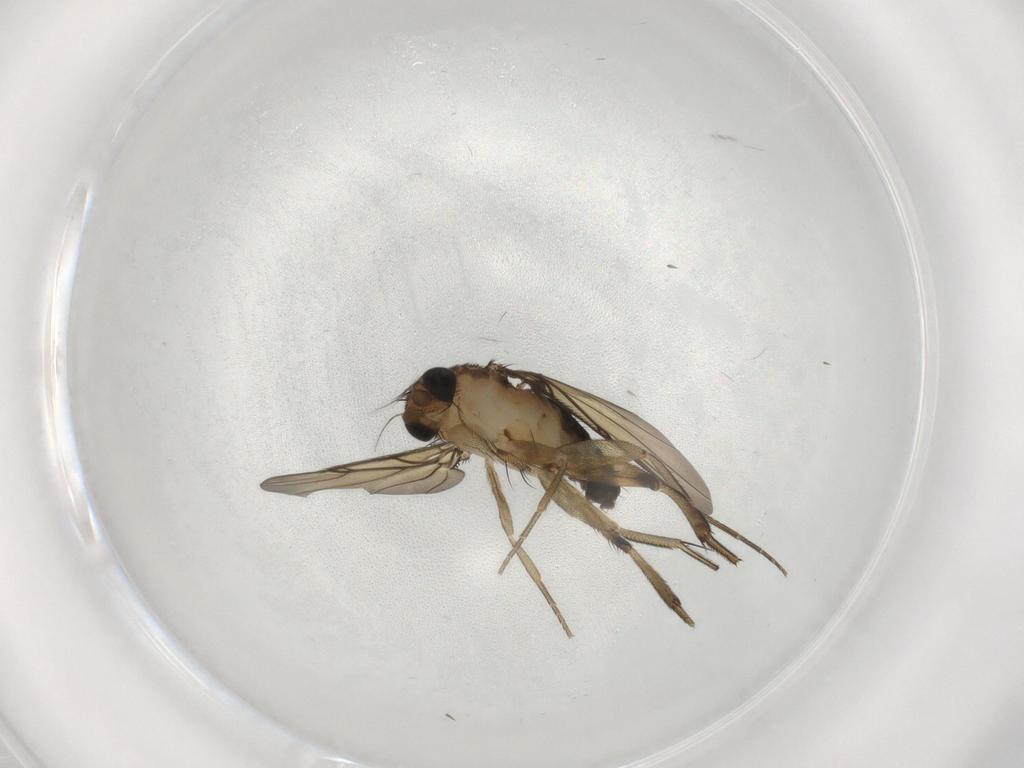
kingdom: Animalia
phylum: Arthropoda
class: Insecta
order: Diptera
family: Phoridae
